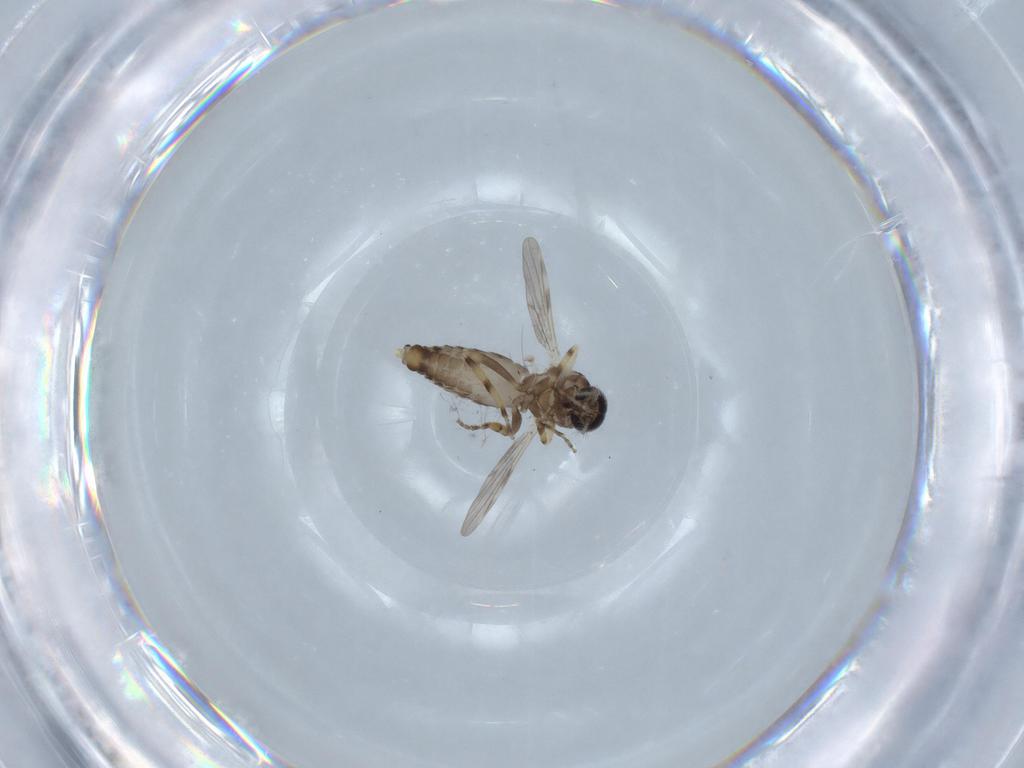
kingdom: Animalia
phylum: Arthropoda
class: Insecta
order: Diptera
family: Ceratopogonidae
